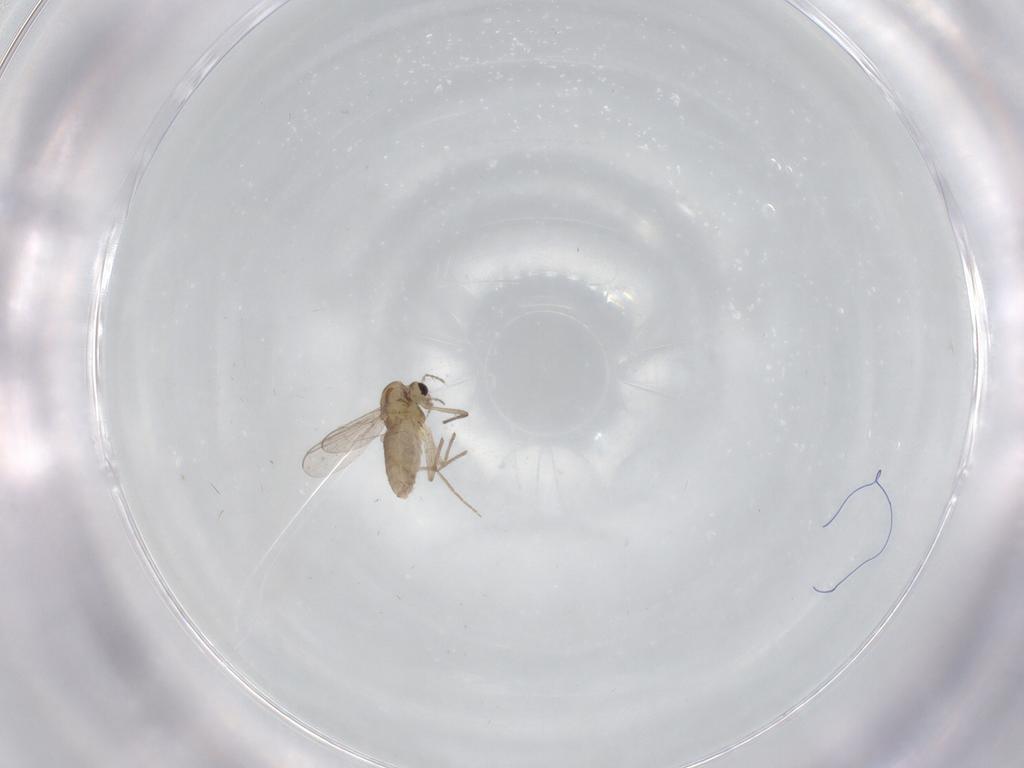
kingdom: Animalia
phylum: Arthropoda
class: Insecta
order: Diptera
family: Chironomidae
